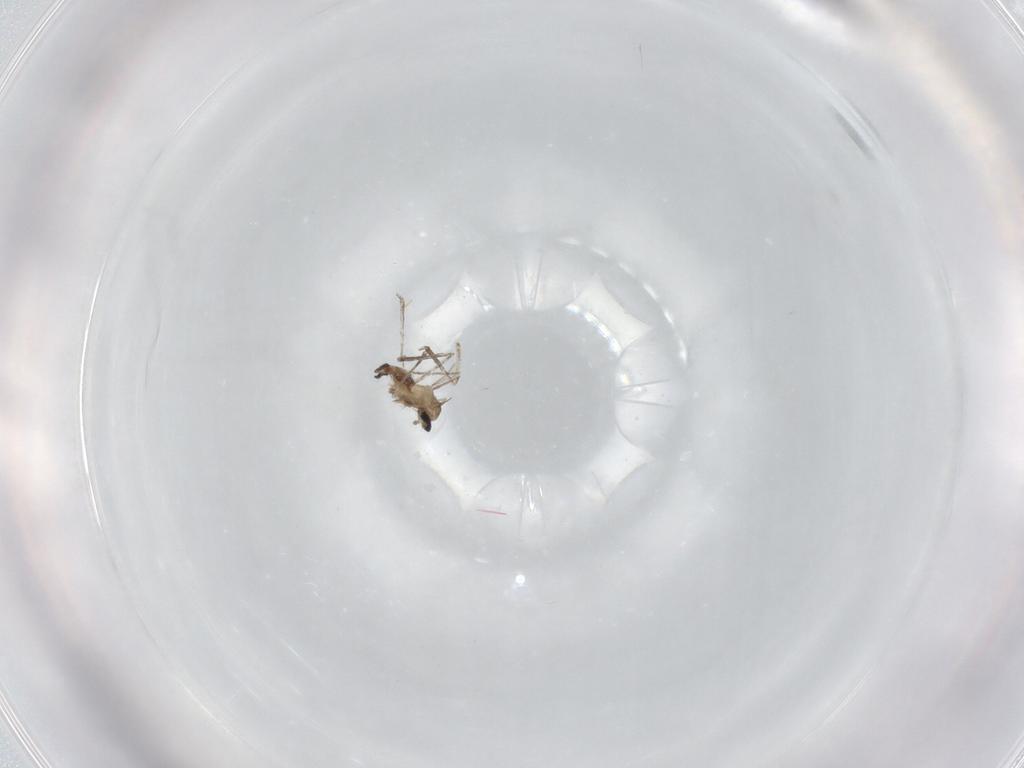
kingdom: Animalia
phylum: Arthropoda
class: Insecta
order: Diptera
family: Cecidomyiidae
